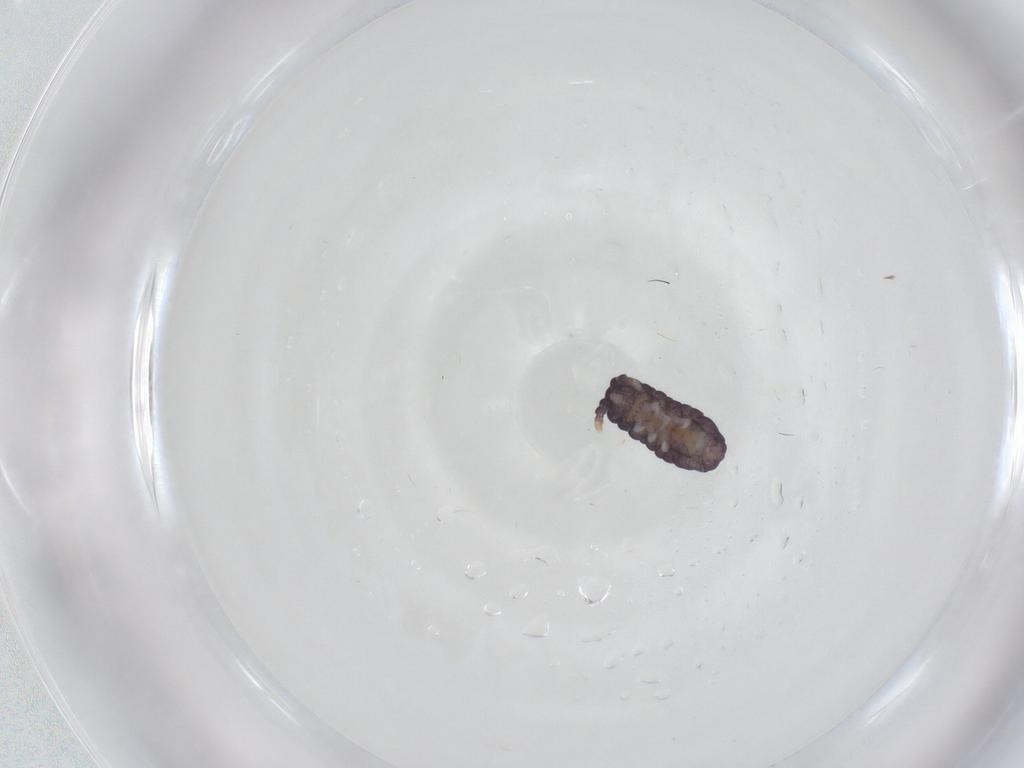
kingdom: Animalia
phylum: Arthropoda
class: Collembola
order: Poduromorpha
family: Neanuridae
